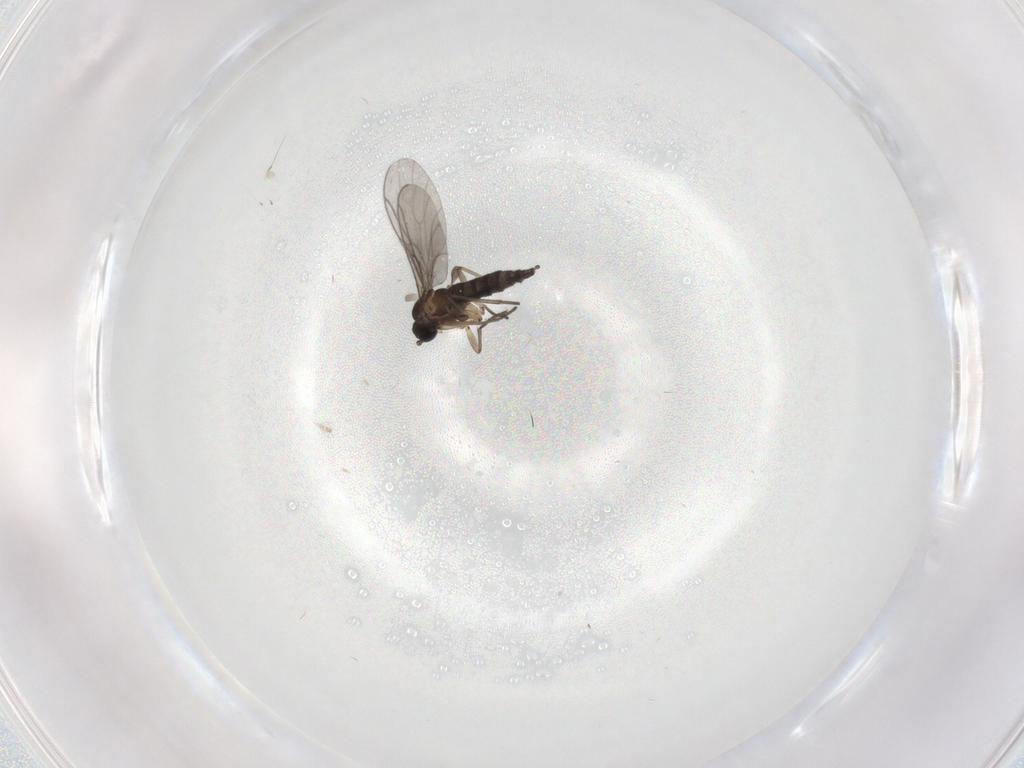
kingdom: Animalia
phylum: Arthropoda
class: Insecta
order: Diptera
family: Sciaridae
